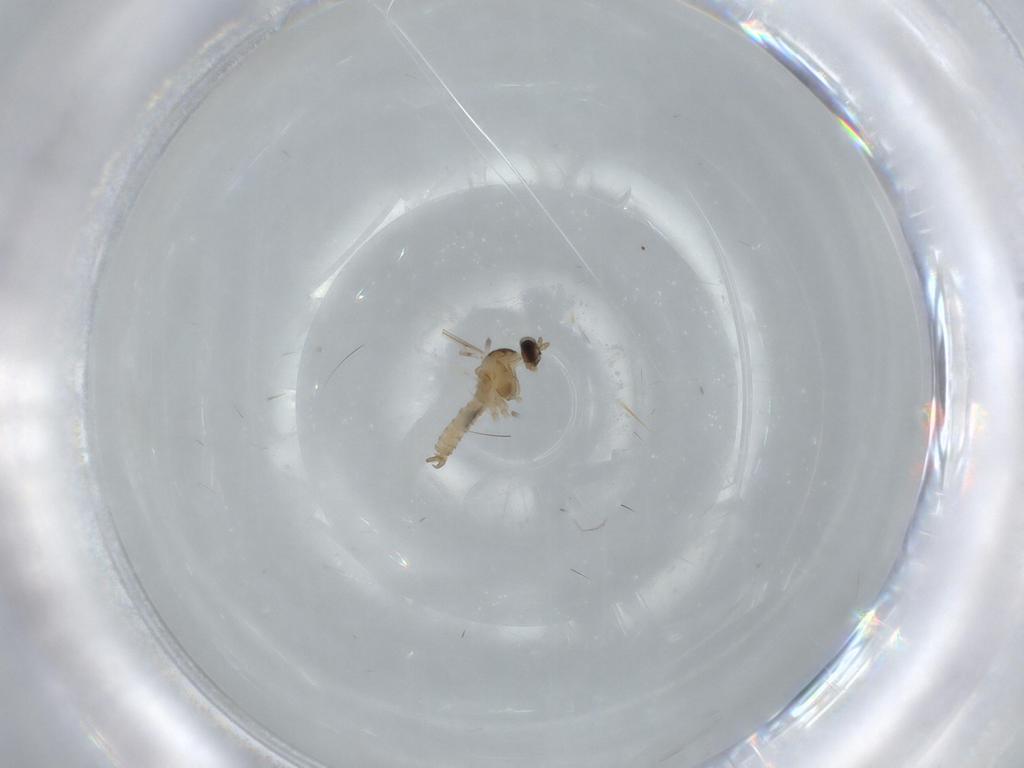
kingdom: Animalia
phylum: Arthropoda
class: Insecta
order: Diptera
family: Cecidomyiidae
